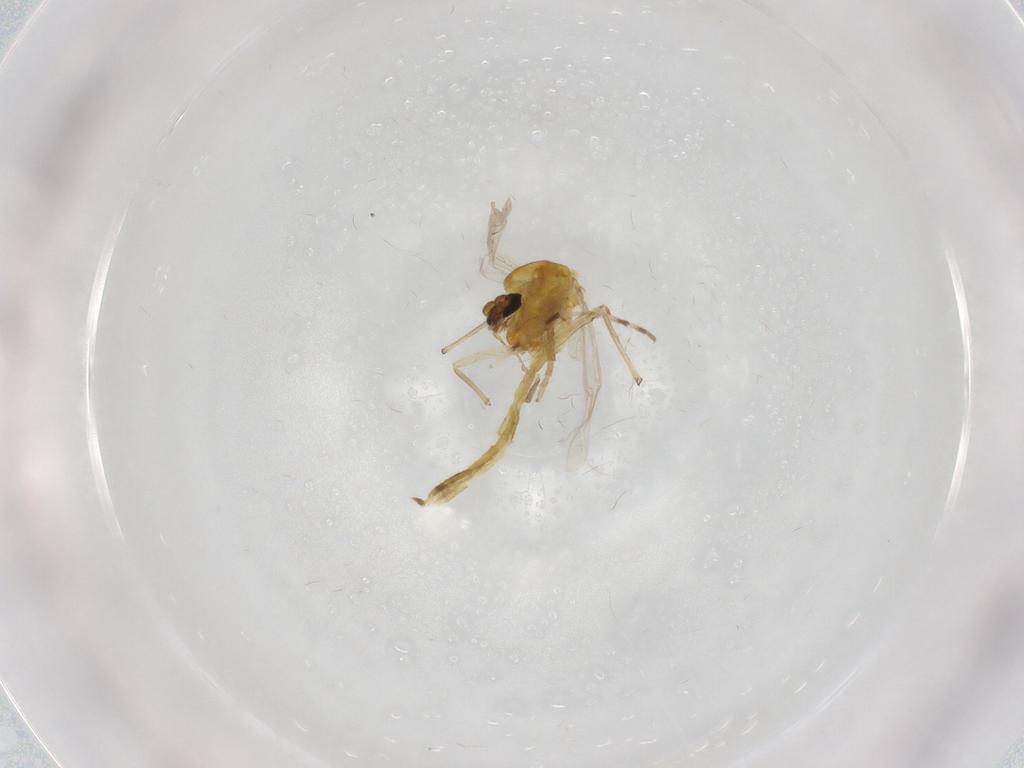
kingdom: Animalia
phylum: Arthropoda
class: Insecta
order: Diptera
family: Chironomidae
